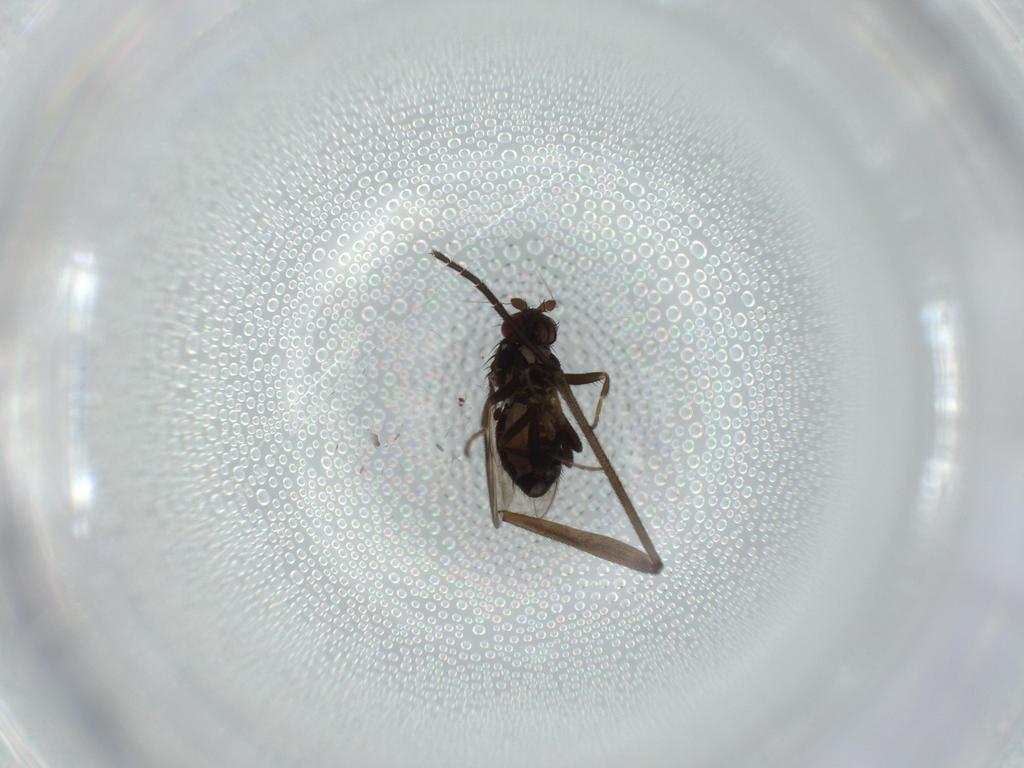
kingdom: Animalia
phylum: Arthropoda
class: Insecta
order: Diptera
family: Sciaridae
